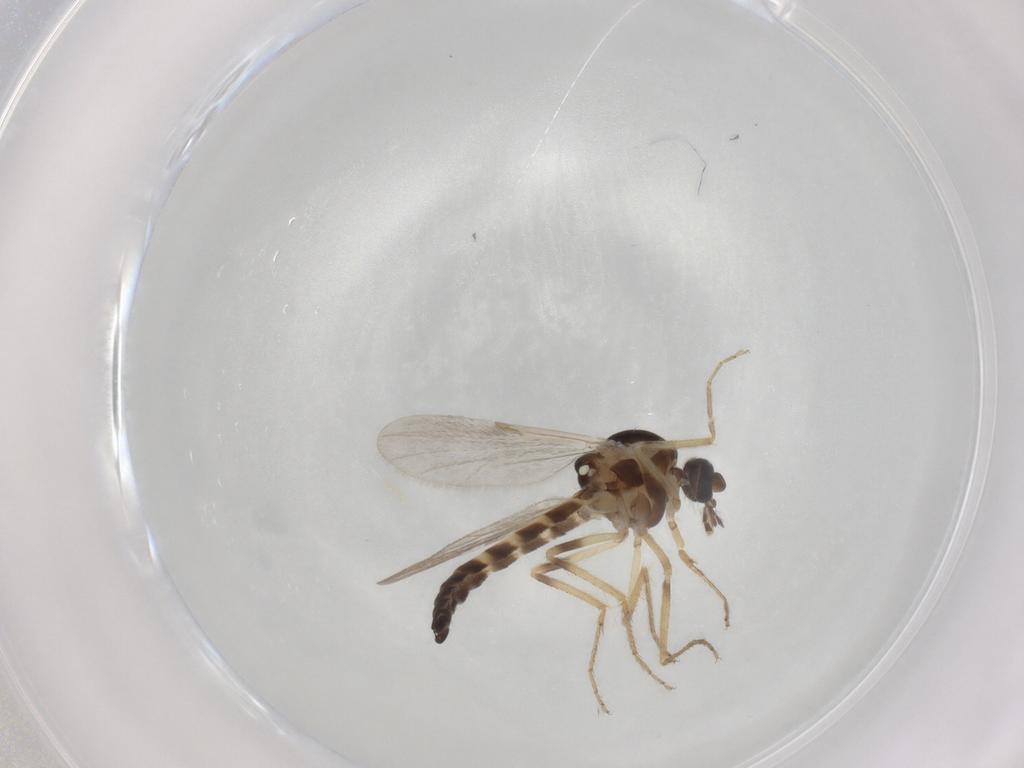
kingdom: Animalia
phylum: Arthropoda
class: Insecta
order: Diptera
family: Ceratopogonidae
